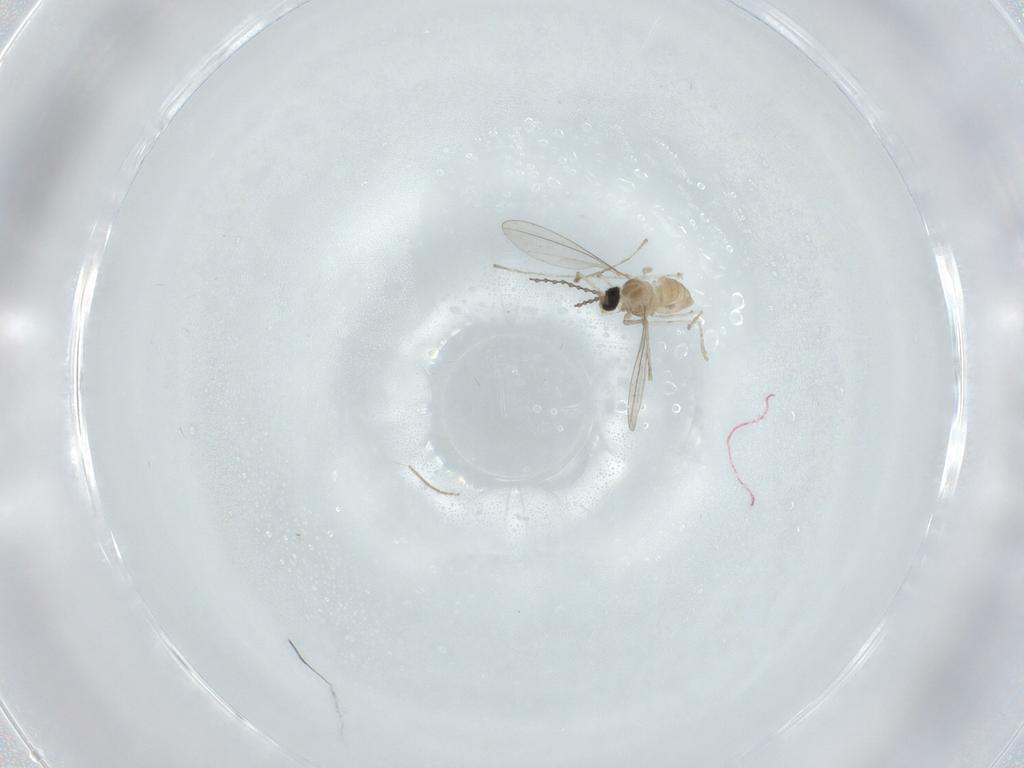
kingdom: Animalia
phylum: Arthropoda
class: Insecta
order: Diptera
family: Cecidomyiidae
